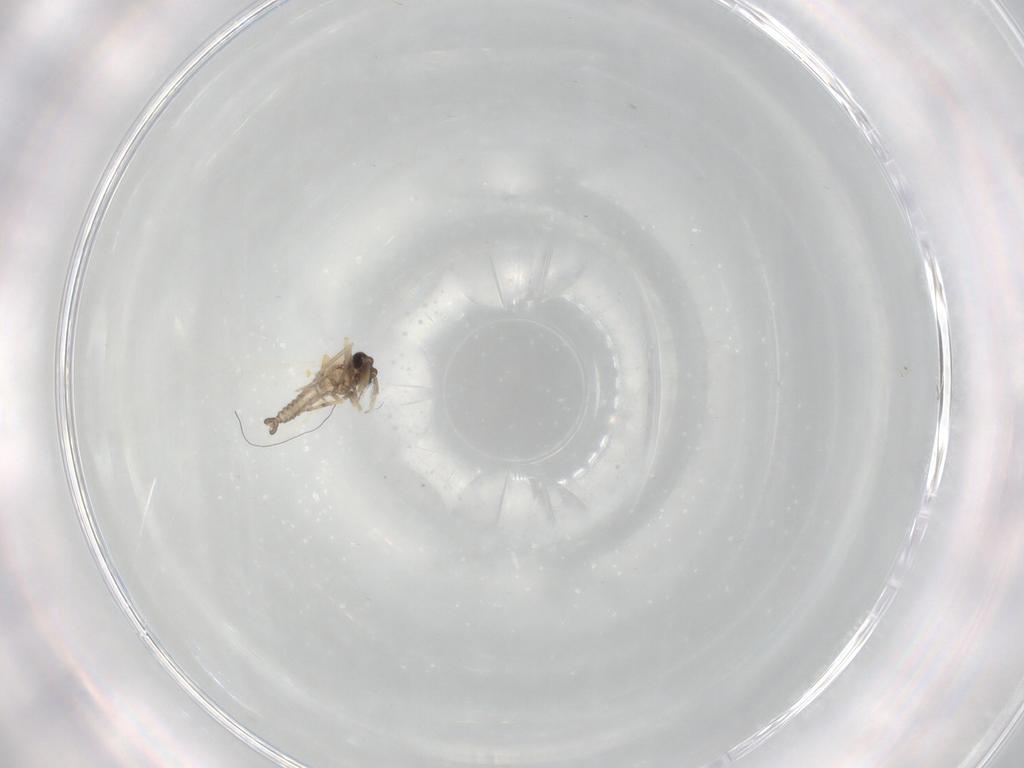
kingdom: Animalia
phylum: Arthropoda
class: Insecta
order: Diptera
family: Ceratopogonidae
